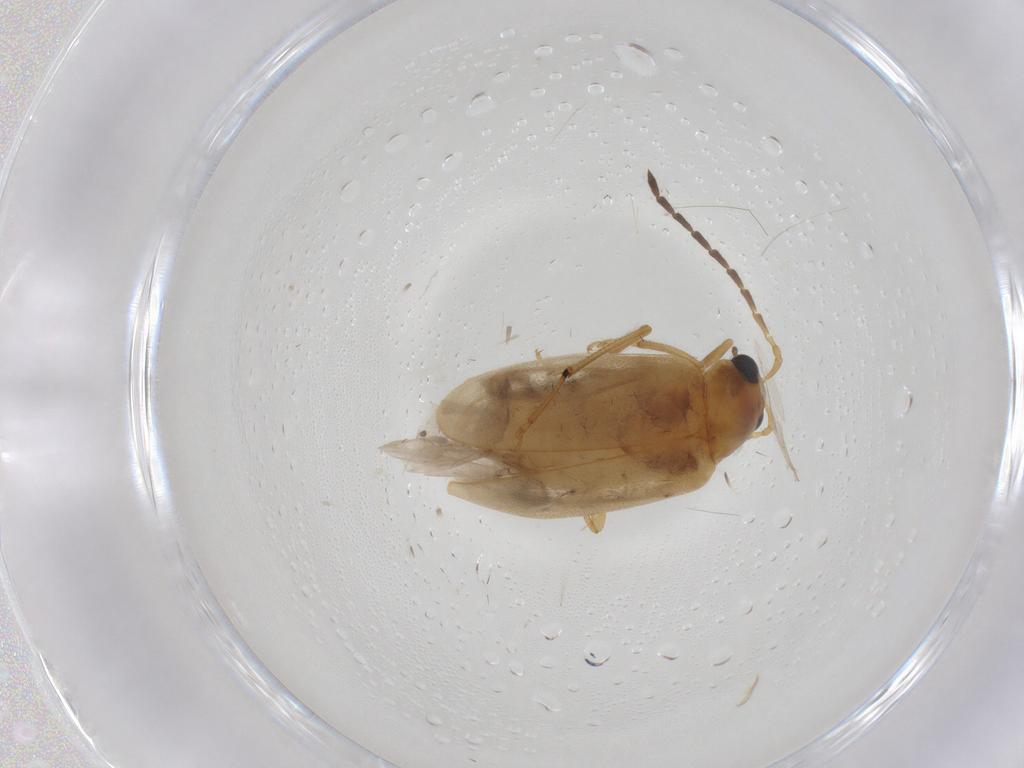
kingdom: Animalia
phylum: Arthropoda
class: Insecta
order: Coleoptera
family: Chrysomelidae
